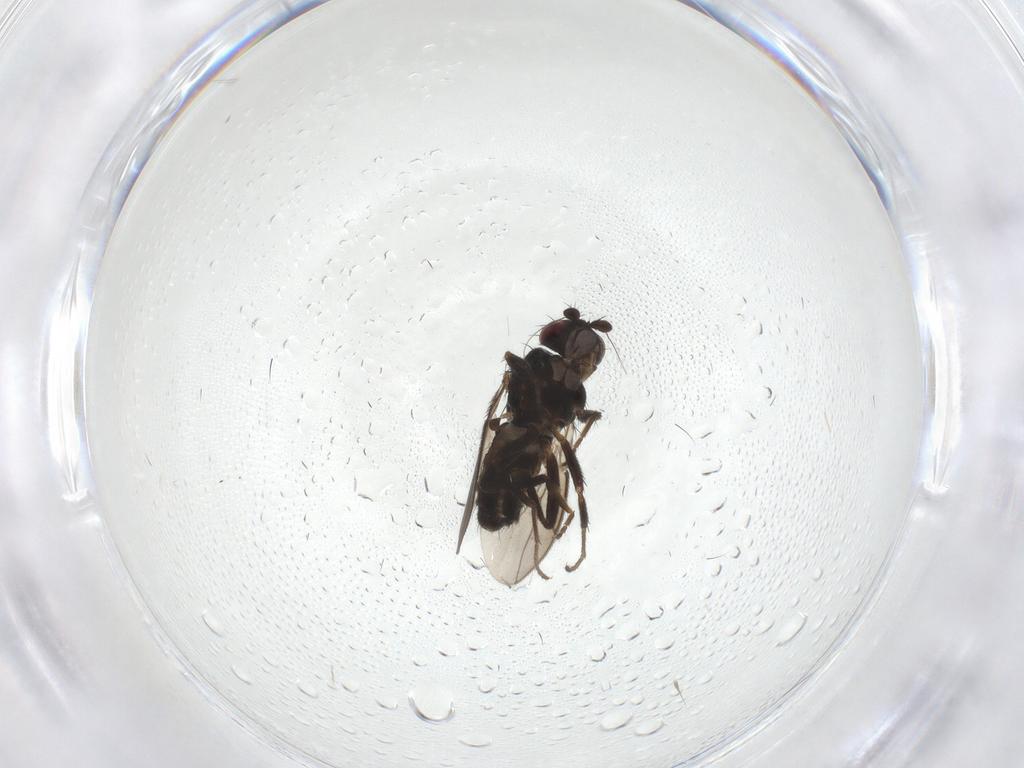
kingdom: Animalia
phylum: Arthropoda
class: Insecta
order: Diptera
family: Sphaeroceridae
